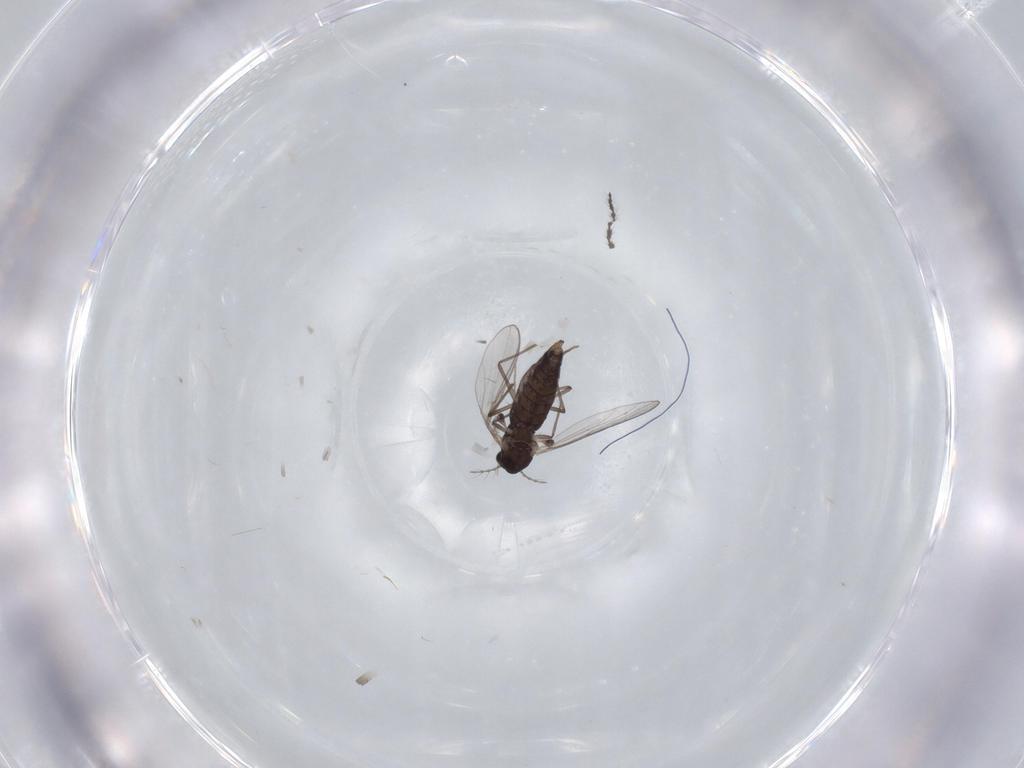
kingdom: Animalia
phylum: Arthropoda
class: Insecta
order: Diptera
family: Chironomidae
